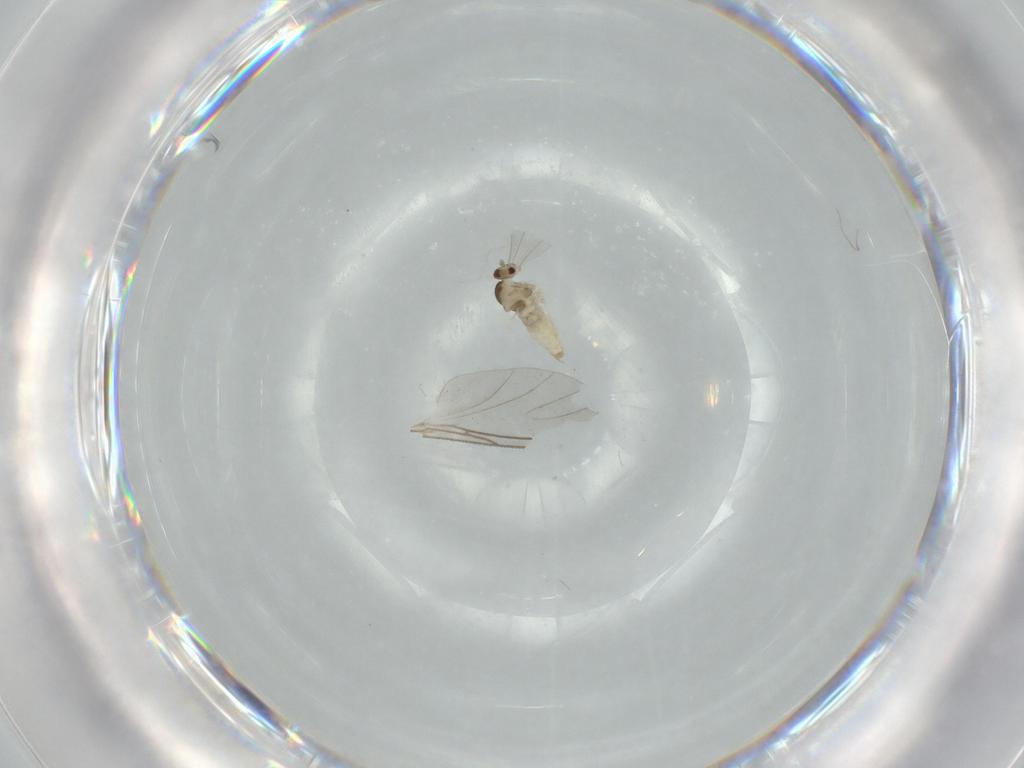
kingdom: Animalia
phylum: Arthropoda
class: Insecta
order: Diptera
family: Cecidomyiidae
